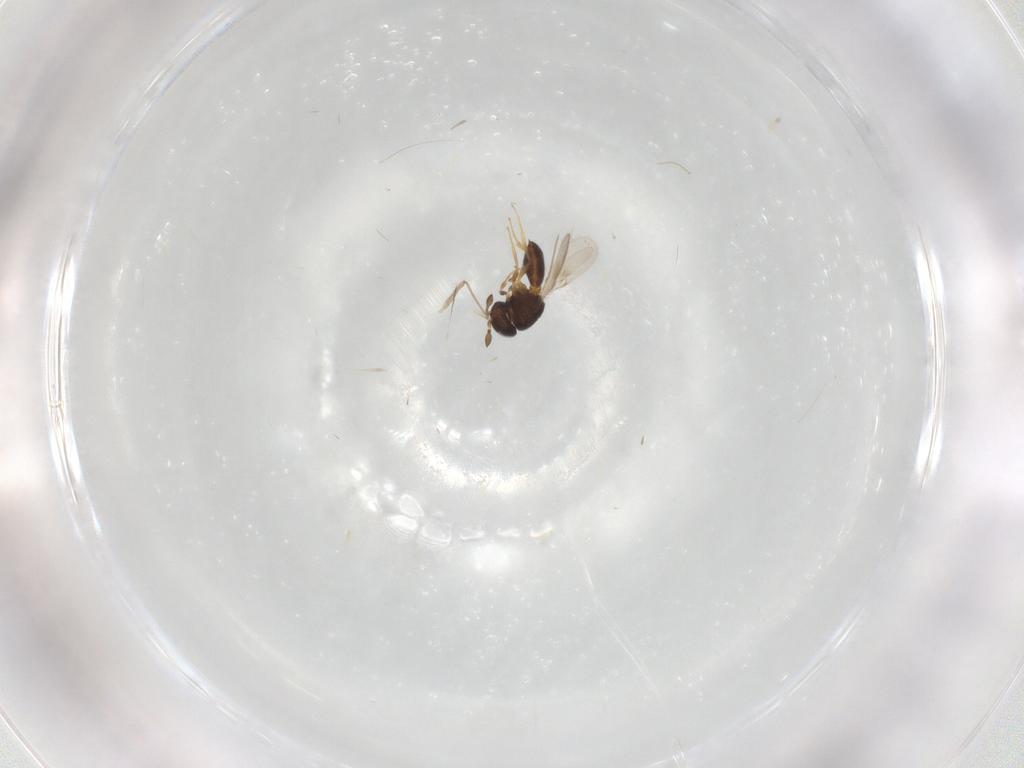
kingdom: Animalia
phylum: Arthropoda
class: Insecta
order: Hymenoptera
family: Scelionidae
